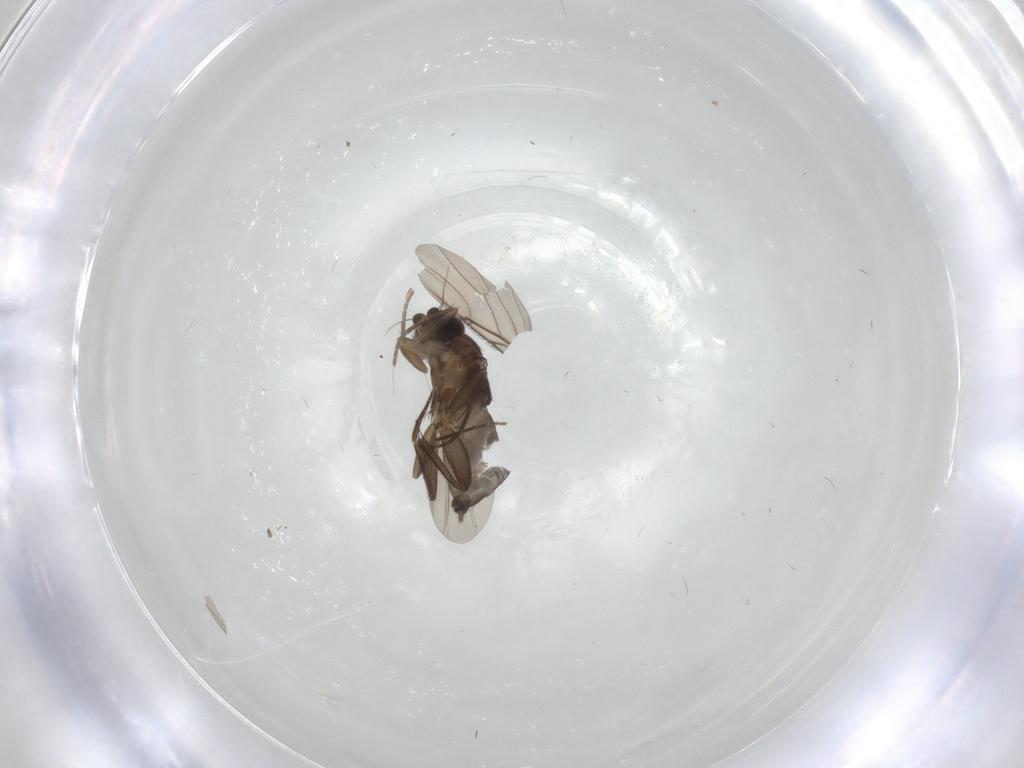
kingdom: Animalia
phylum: Arthropoda
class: Insecta
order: Diptera
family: Phoridae
